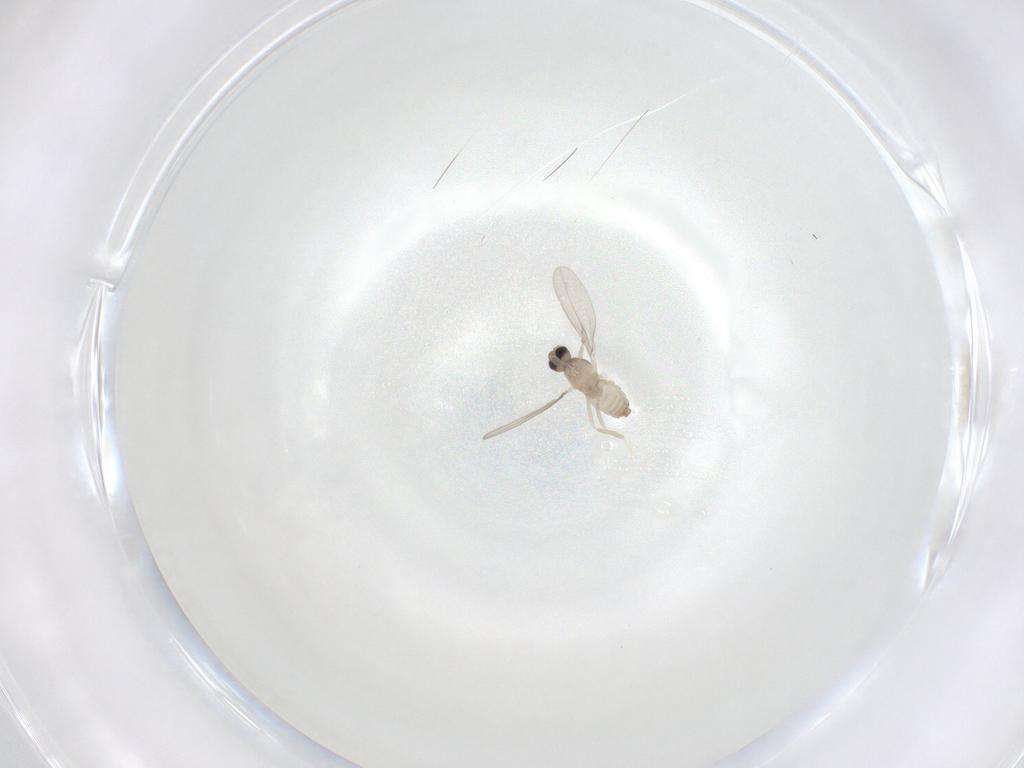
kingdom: Animalia
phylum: Arthropoda
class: Insecta
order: Diptera
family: Cecidomyiidae
